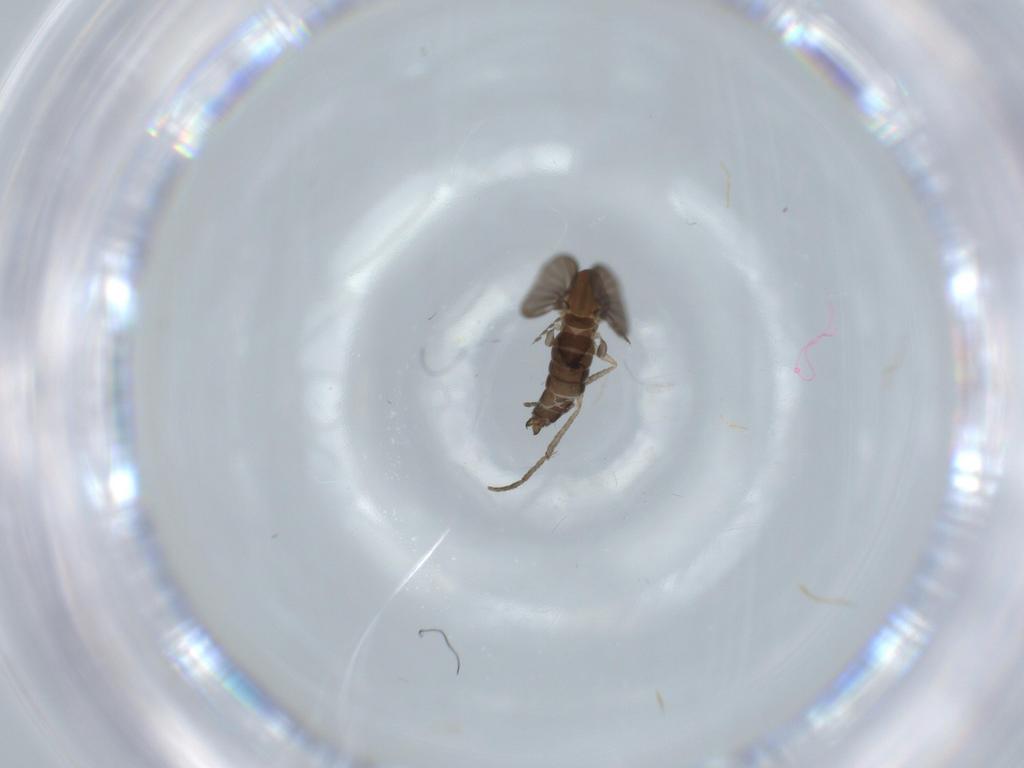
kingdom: Animalia
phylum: Arthropoda
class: Insecta
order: Diptera
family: Psychodidae
